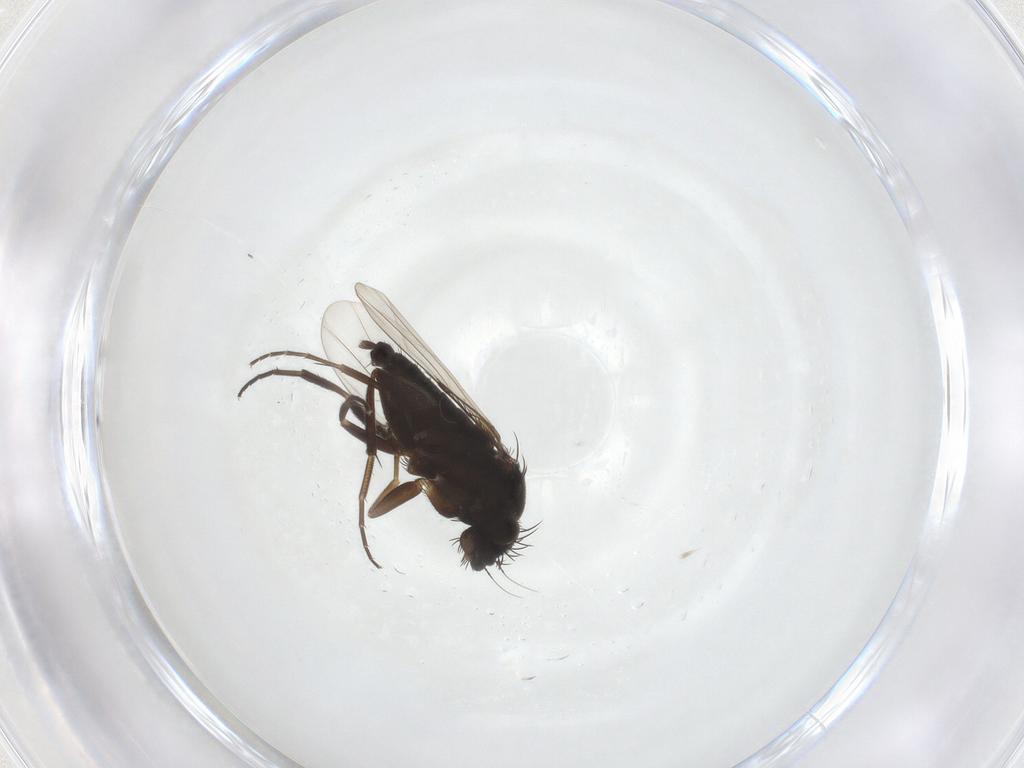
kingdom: Animalia
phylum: Arthropoda
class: Insecta
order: Diptera
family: Phoridae
